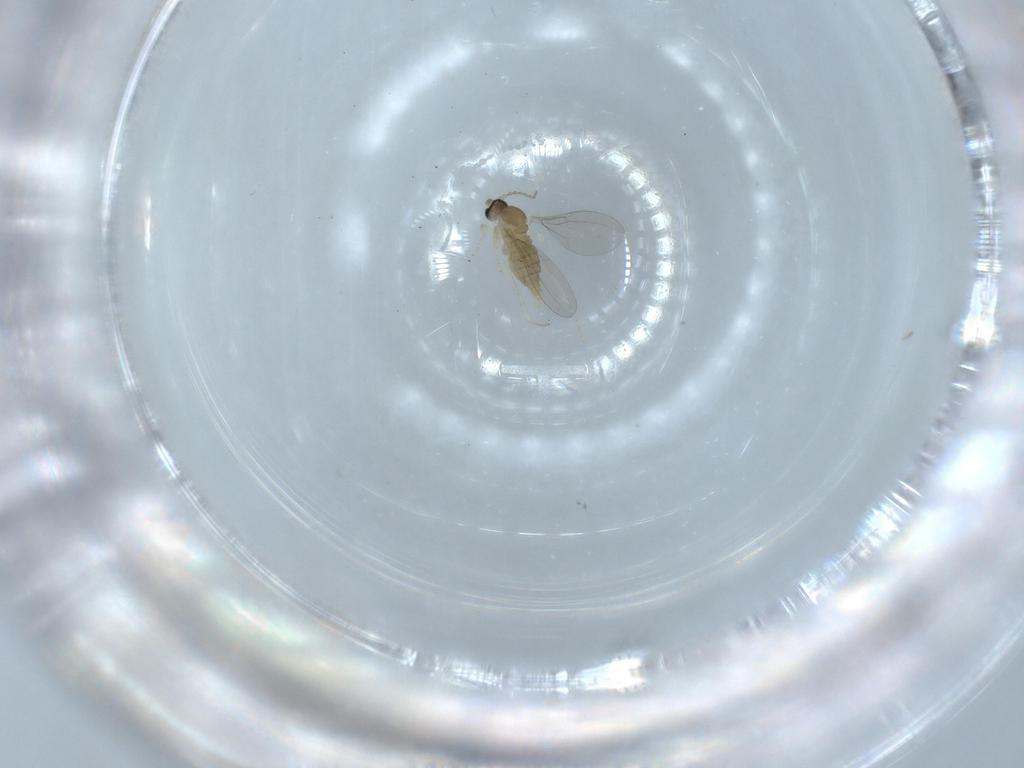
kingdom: Animalia
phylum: Arthropoda
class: Insecta
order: Diptera
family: Cecidomyiidae
